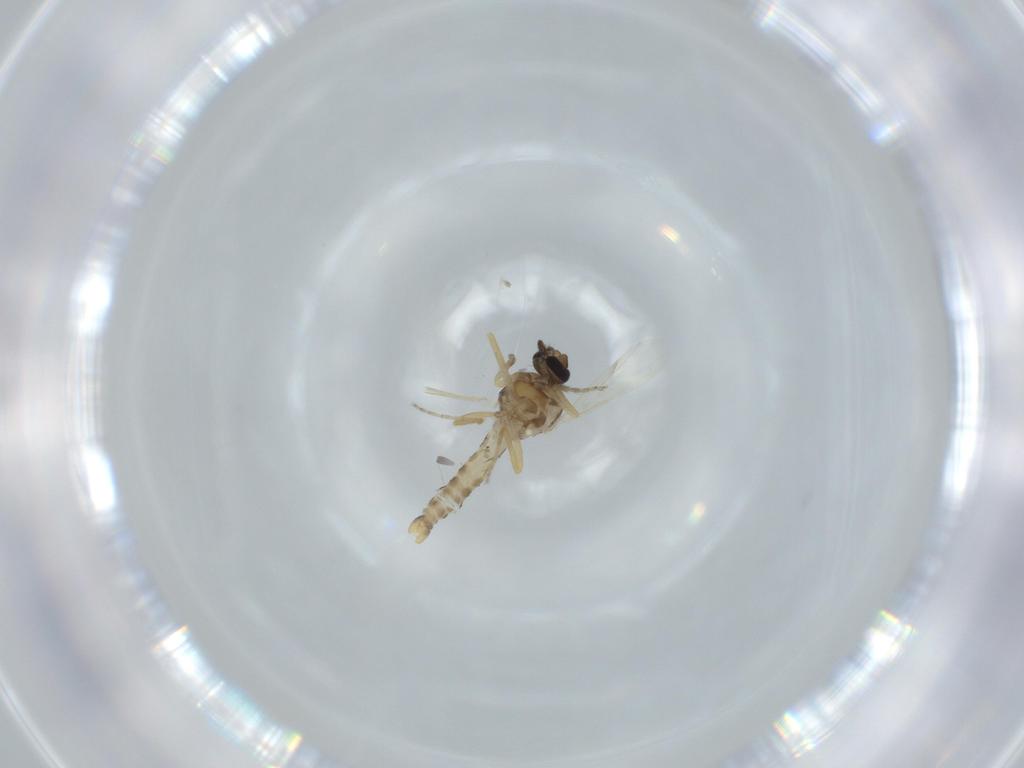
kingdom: Animalia
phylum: Arthropoda
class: Insecta
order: Diptera
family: Ceratopogonidae
